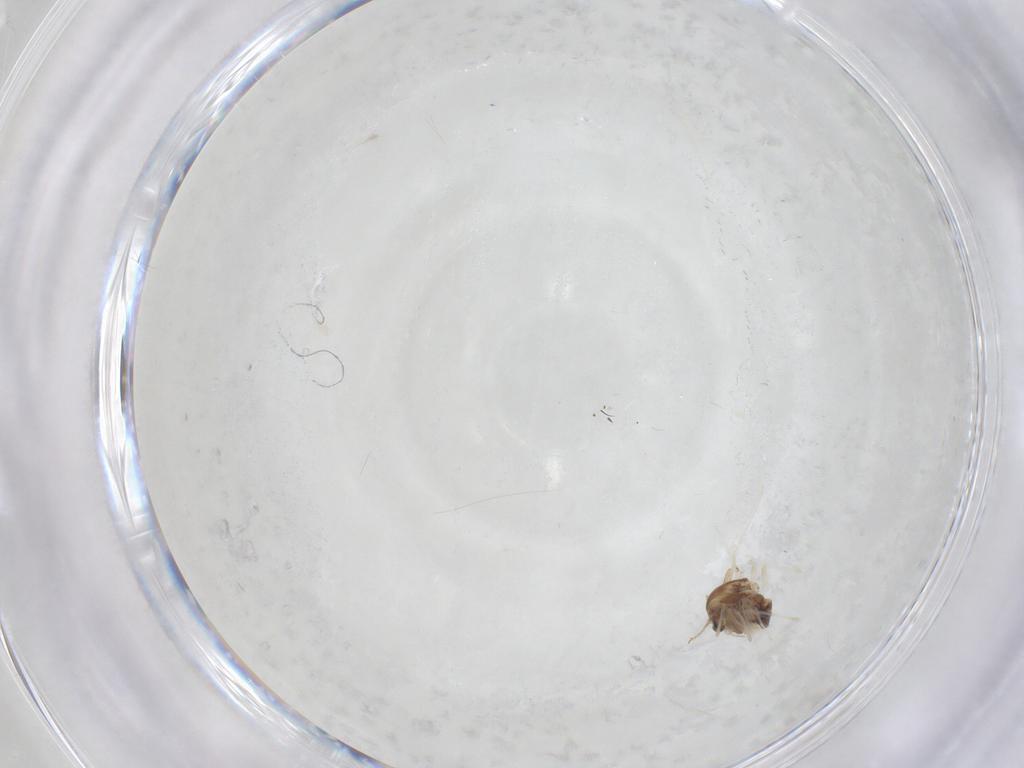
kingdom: Animalia
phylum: Arthropoda
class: Insecta
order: Diptera
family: Chironomidae
